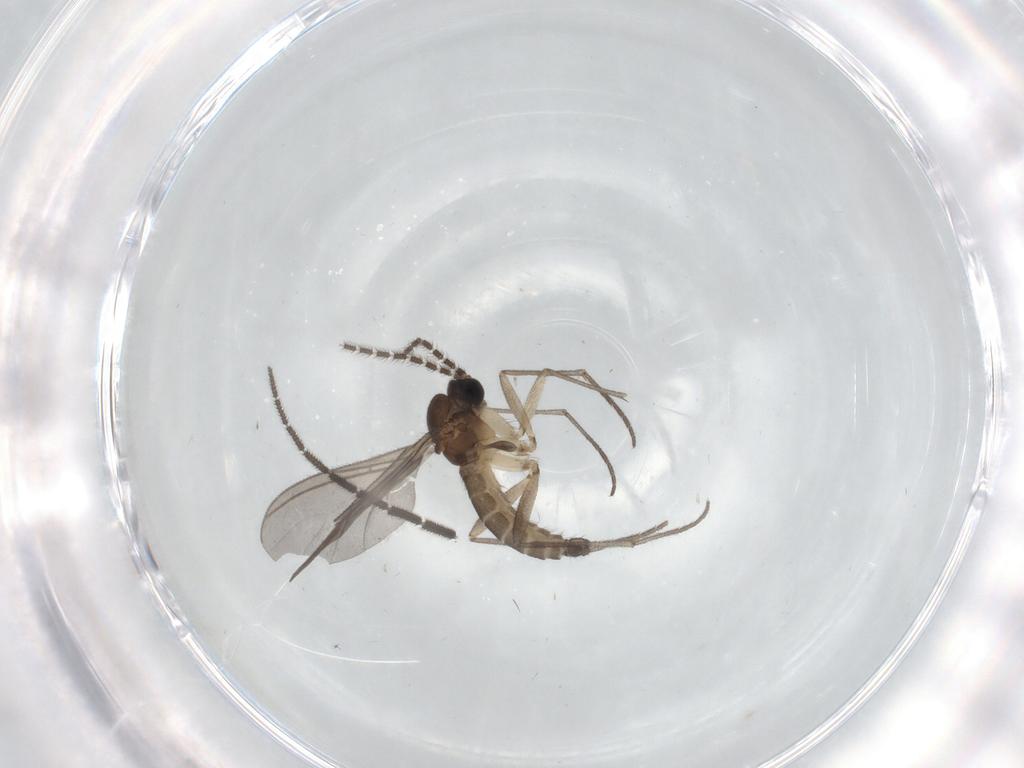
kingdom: Animalia
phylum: Arthropoda
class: Insecta
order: Diptera
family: Sciaridae
